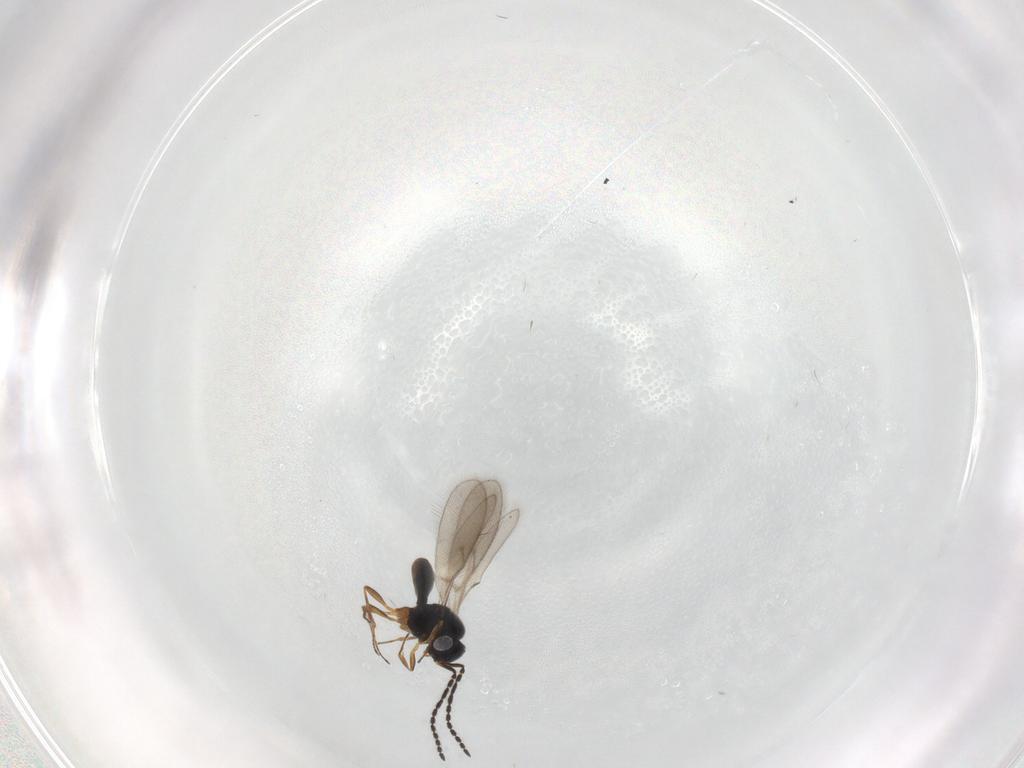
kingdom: Animalia
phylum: Arthropoda
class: Insecta
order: Hymenoptera
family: Scelionidae
